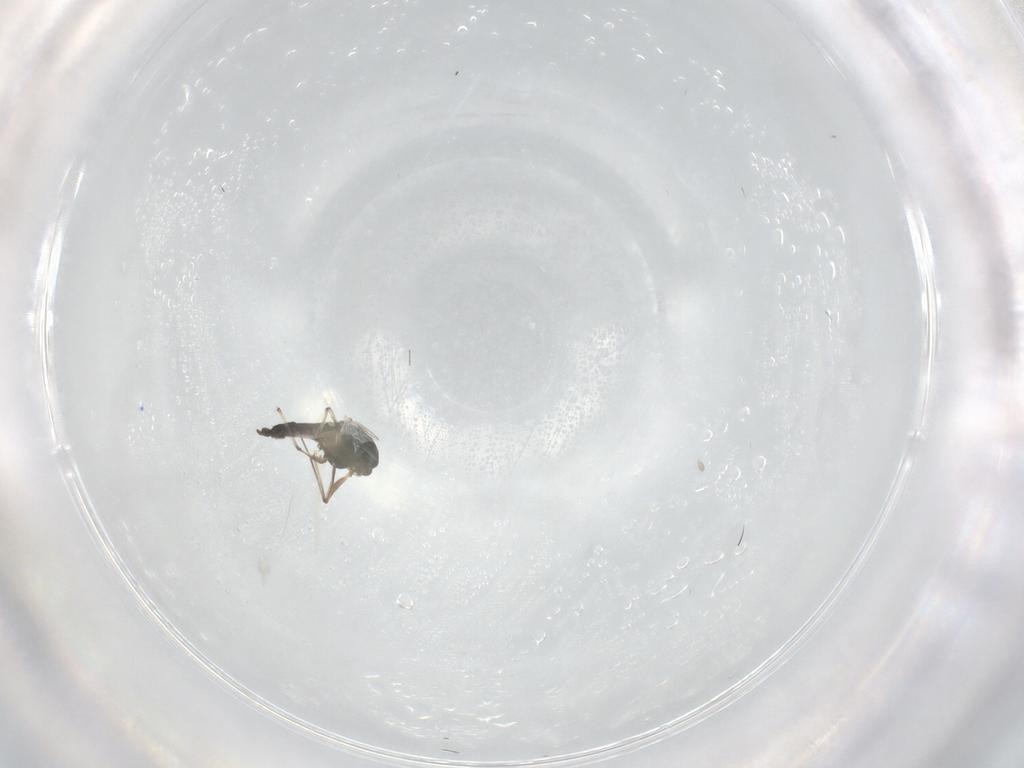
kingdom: Animalia
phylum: Arthropoda
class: Insecta
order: Diptera
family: Chironomidae
